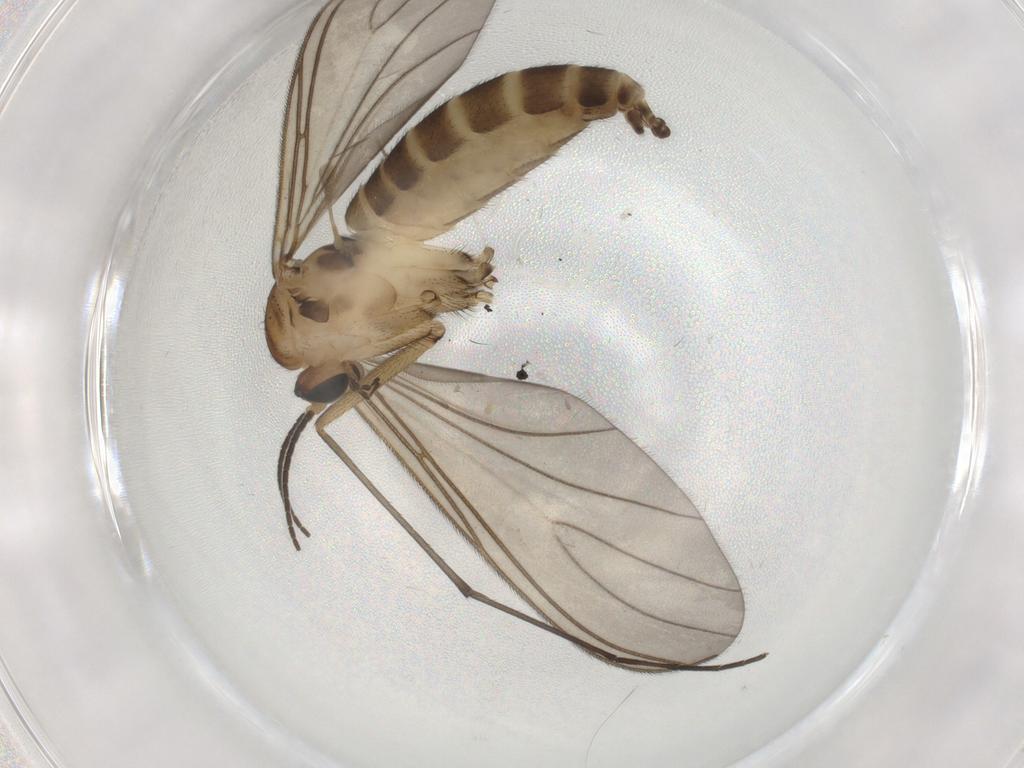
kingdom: Animalia
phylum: Arthropoda
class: Insecta
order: Diptera
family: Sciaridae
